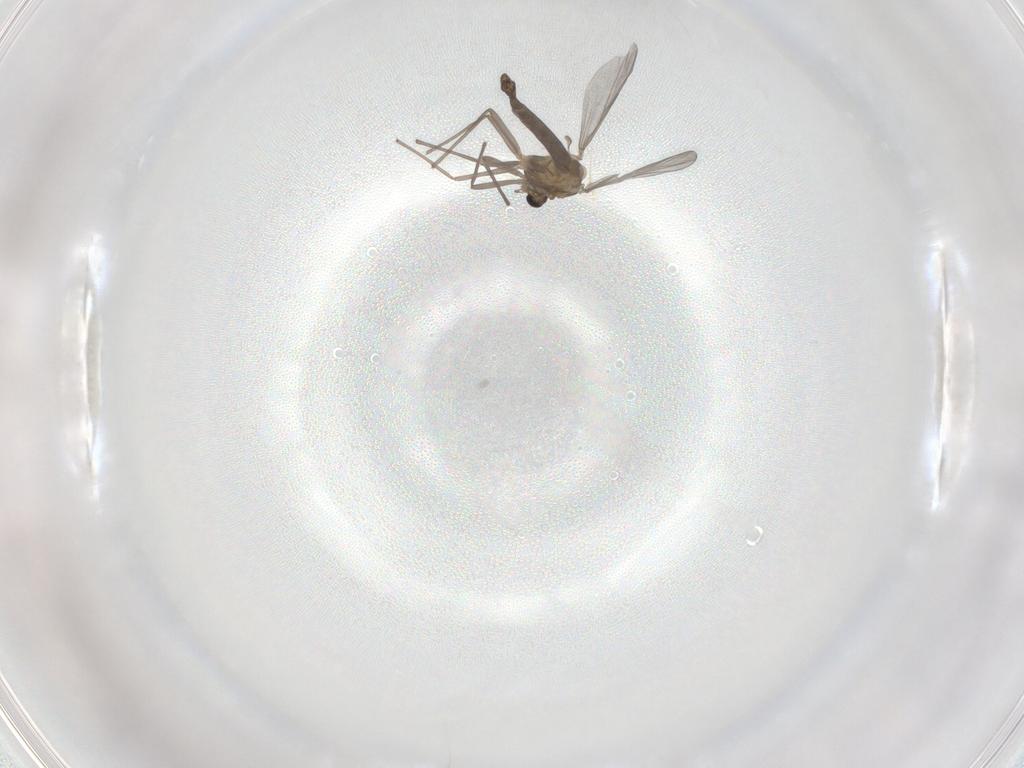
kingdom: Animalia
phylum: Arthropoda
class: Insecta
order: Diptera
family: Chironomidae
